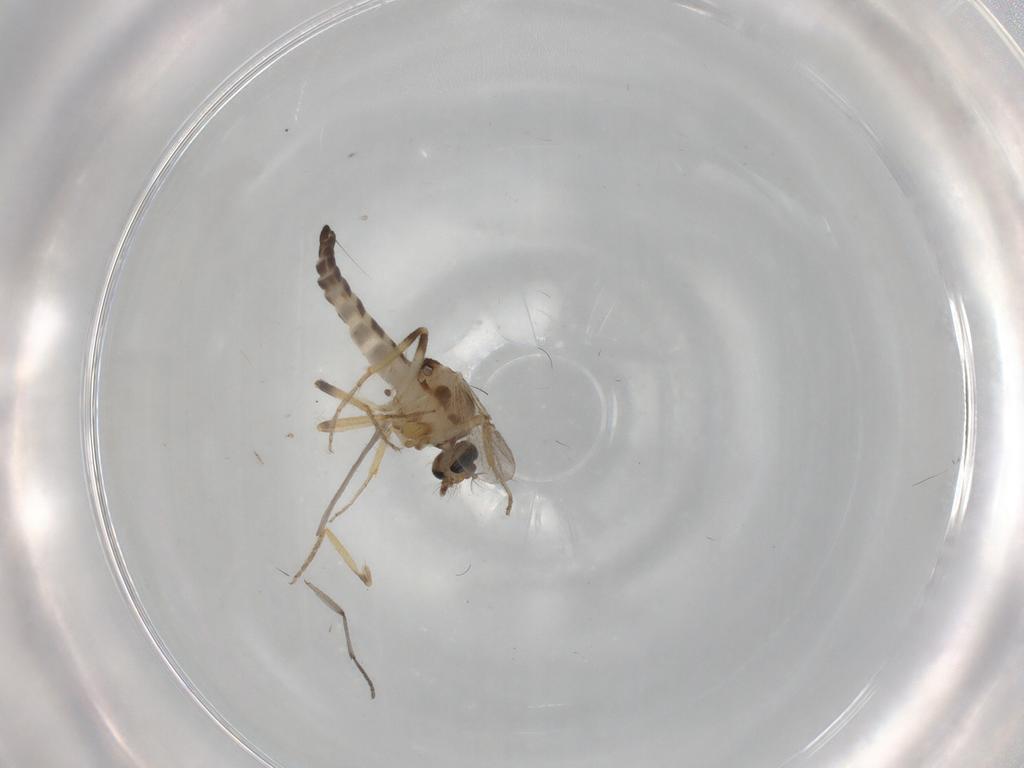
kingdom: Animalia
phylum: Arthropoda
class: Insecta
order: Diptera
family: Ceratopogonidae
